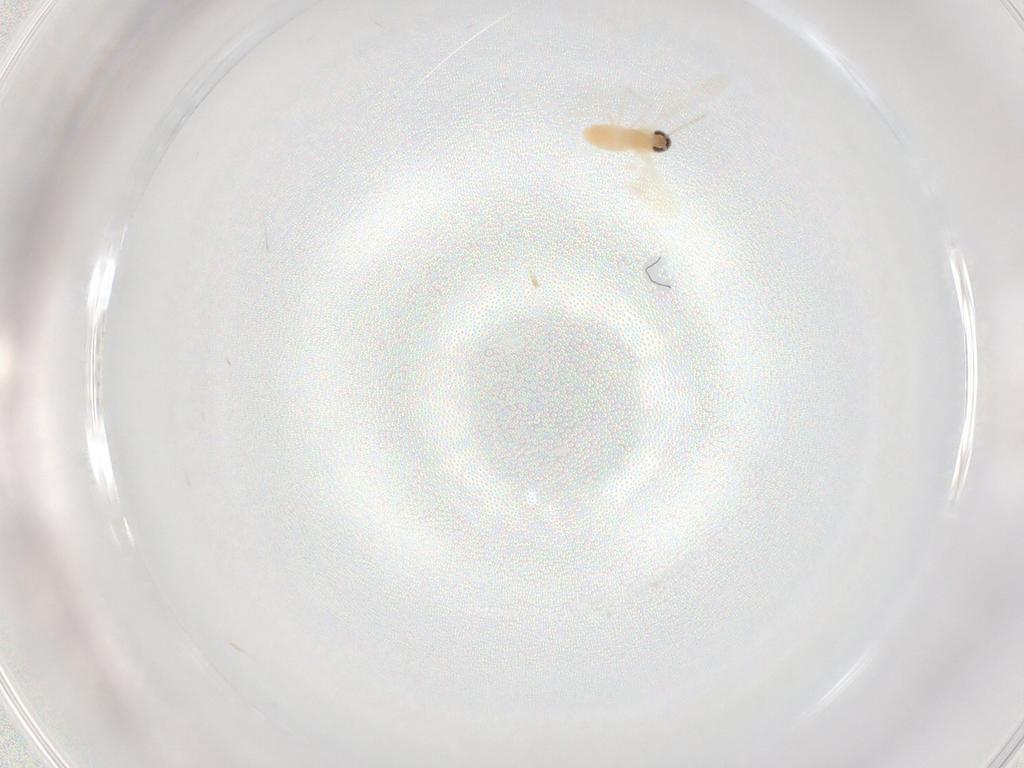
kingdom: Animalia
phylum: Arthropoda
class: Insecta
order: Diptera
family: Cecidomyiidae
